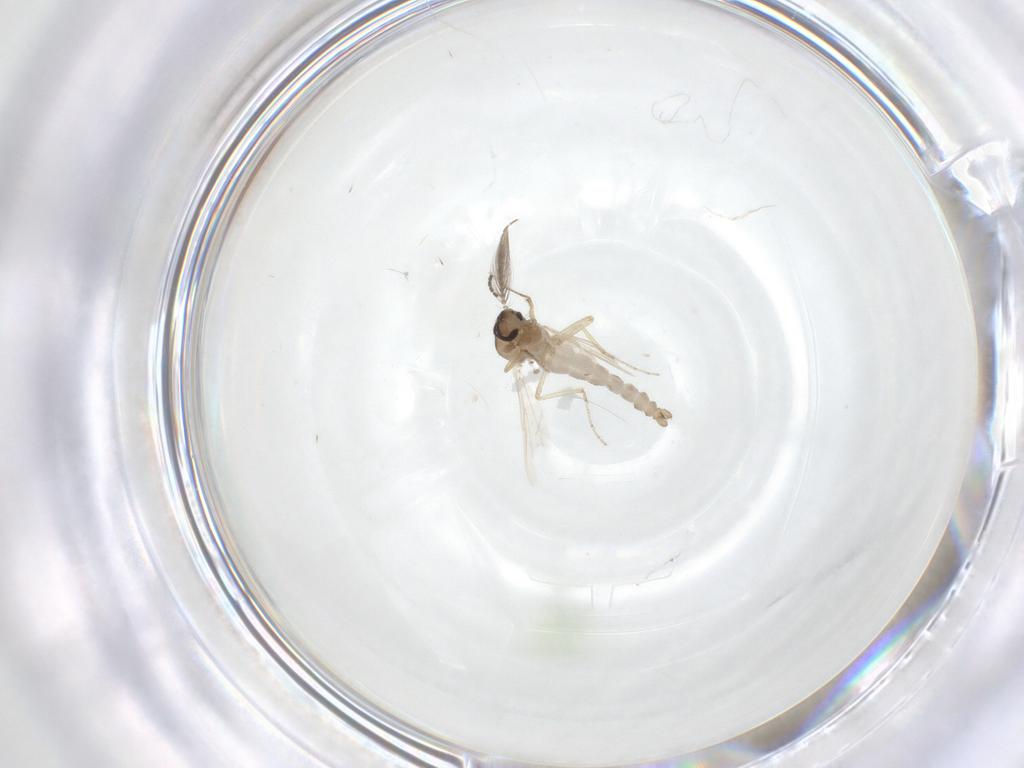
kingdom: Animalia
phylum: Arthropoda
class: Insecta
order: Diptera
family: Ceratopogonidae
